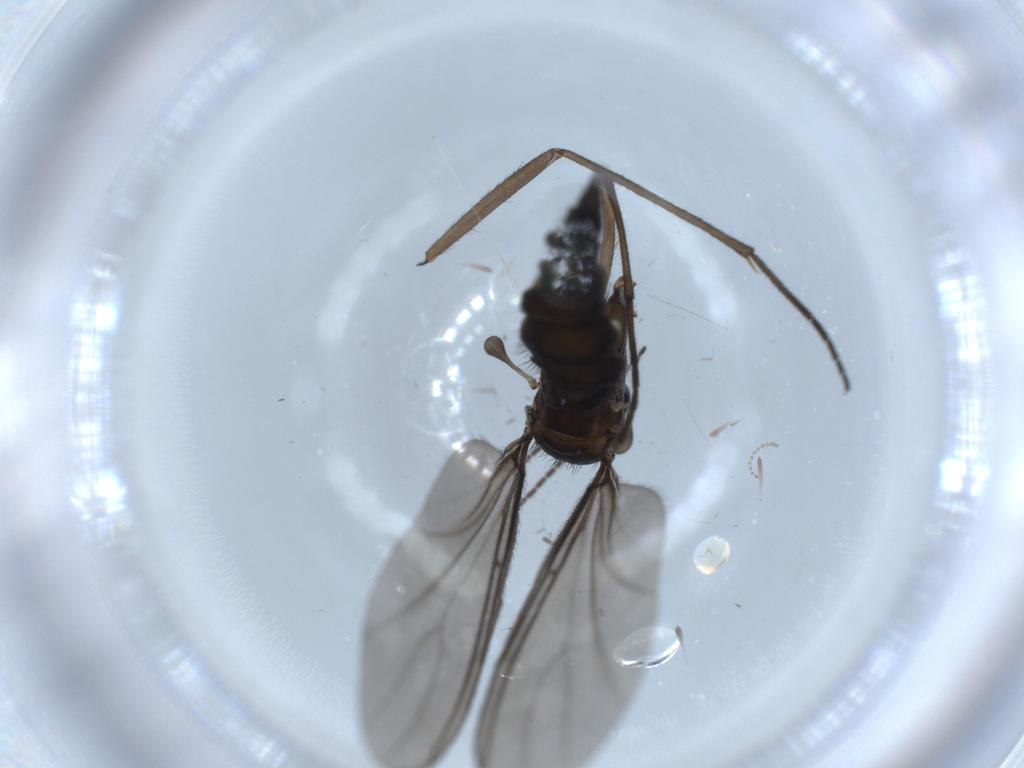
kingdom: Animalia
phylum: Arthropoda
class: Insecta
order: Diptera
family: Sciaridae
